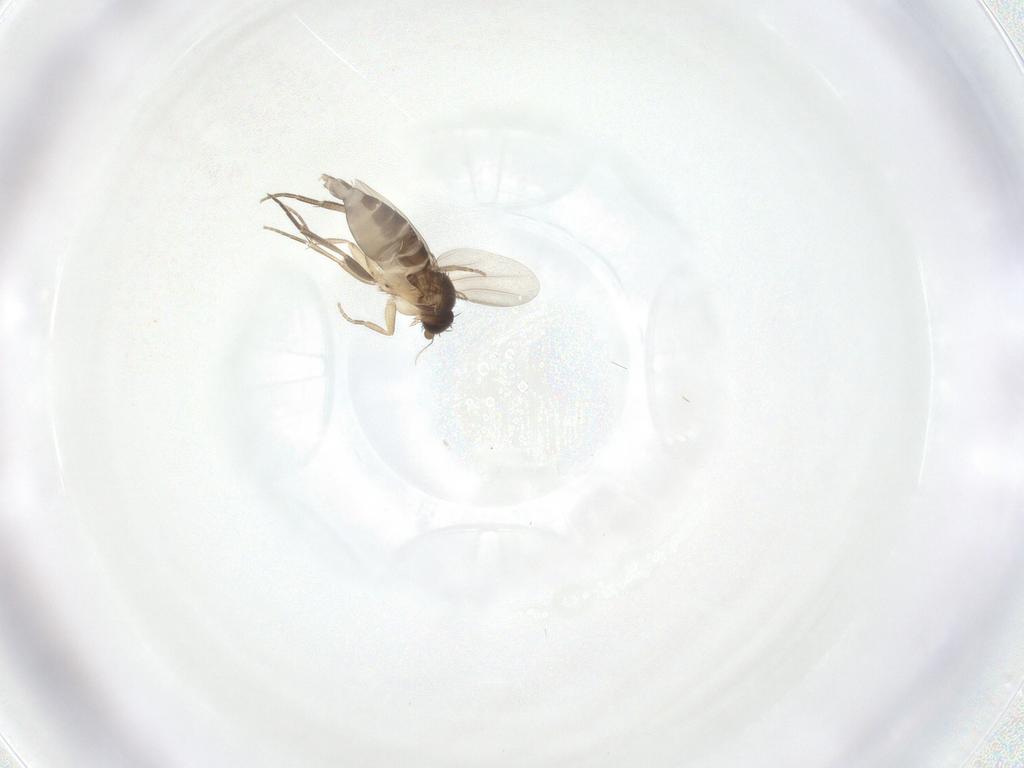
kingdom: Animalia
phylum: Arthropoda
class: Insecta
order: Diptera
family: Phoridae
